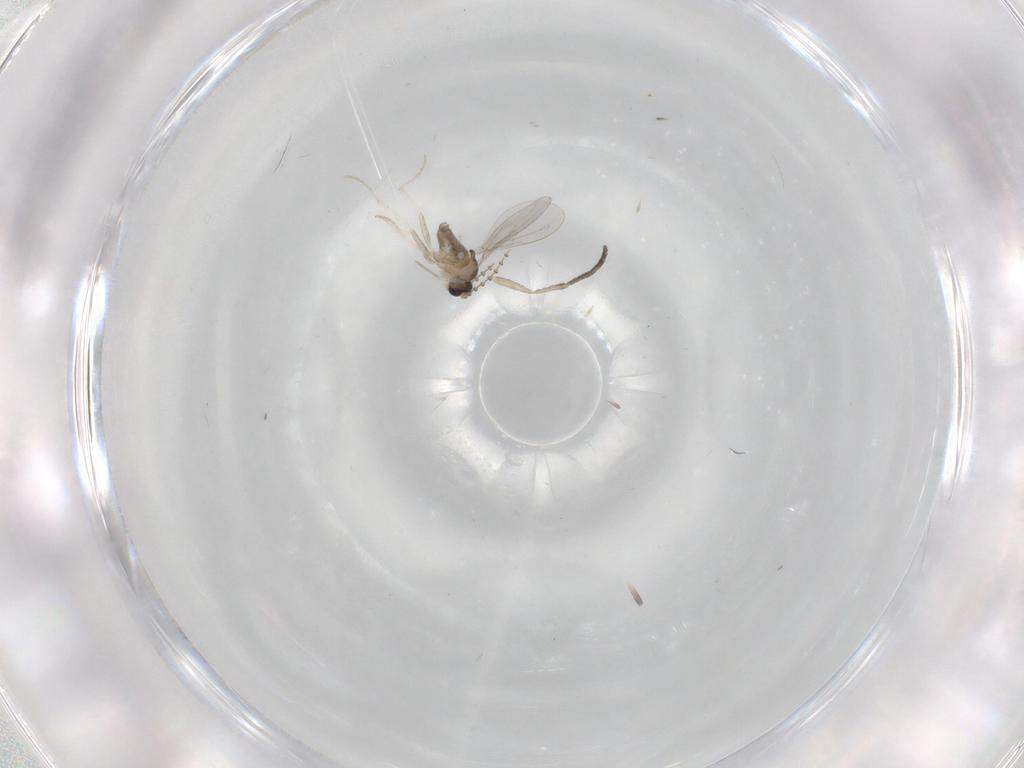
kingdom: Animalia
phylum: Arthropoda
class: Insecta
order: Diptera
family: Psychodidae
